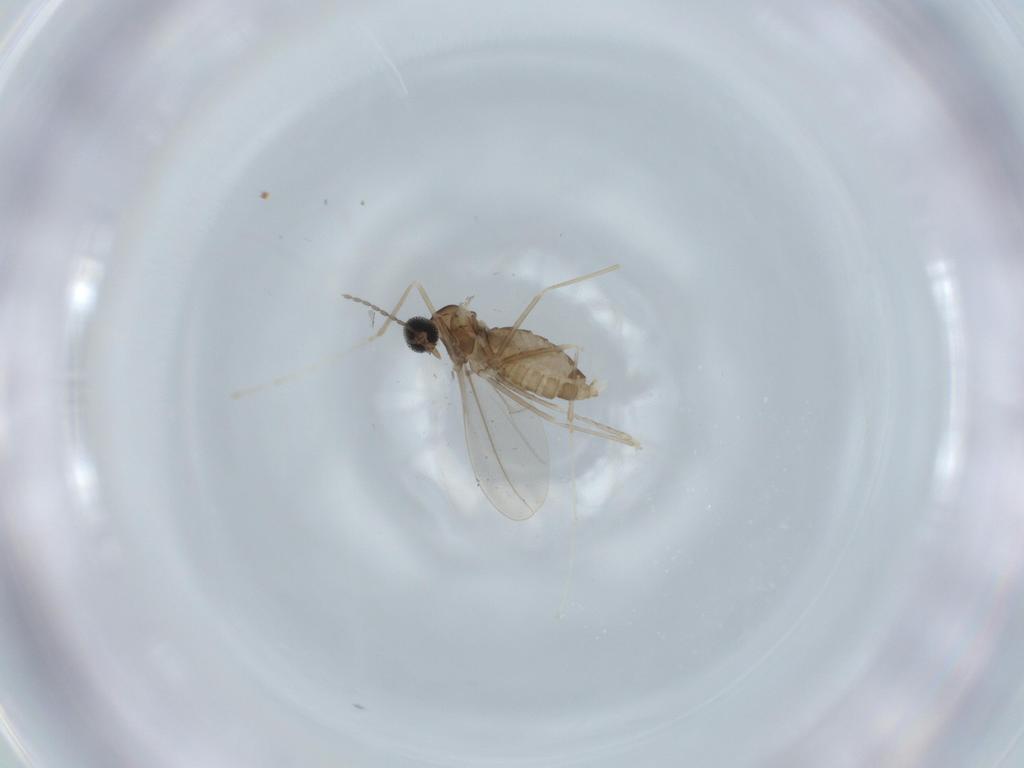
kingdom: Animalia
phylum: Arthropoda
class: Insecta
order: Diptera
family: Cecidomyiidae
